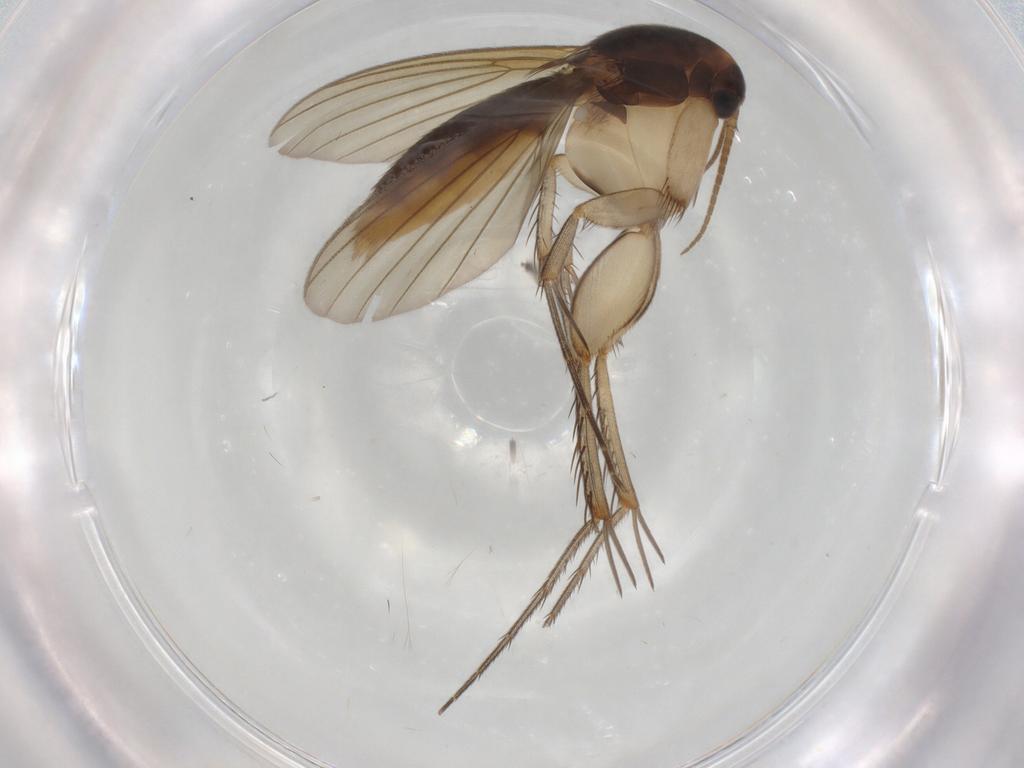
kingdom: Animalia
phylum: Arthropoda
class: Insecta
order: Diptera
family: Mycetophilidae
